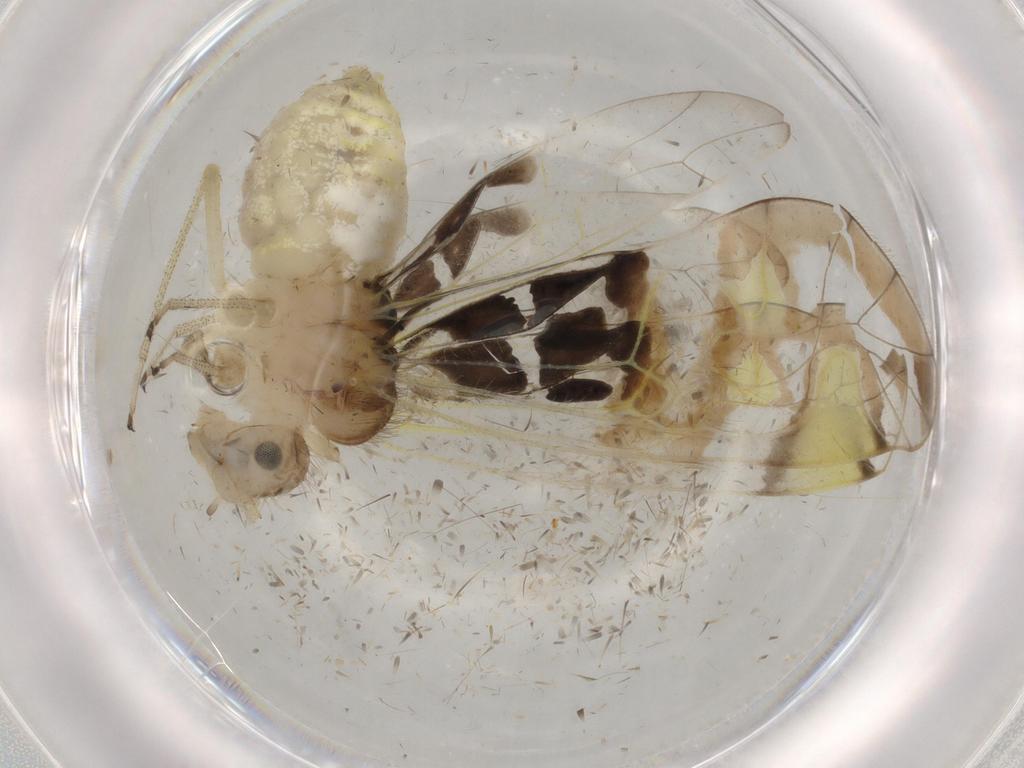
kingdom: Animalia
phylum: Arthropoda
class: Insecta
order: Psocodea
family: Amphipsocidae
